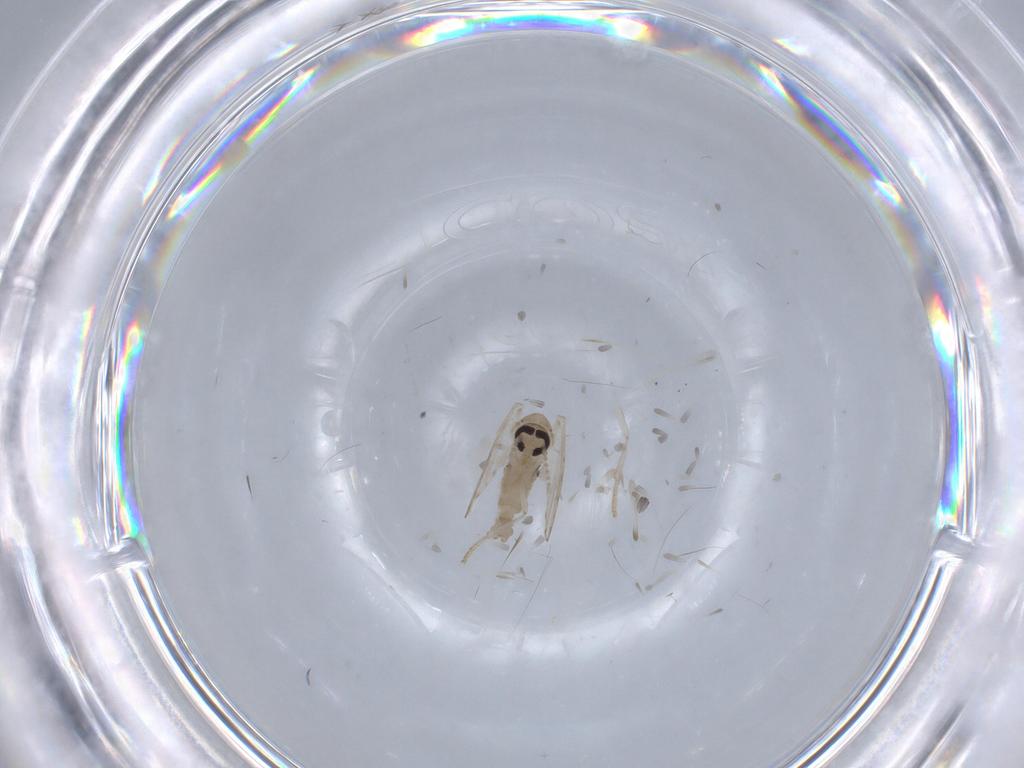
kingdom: Animalia
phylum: Arthropoda
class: Insecta
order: Diptera
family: Psychodidae
